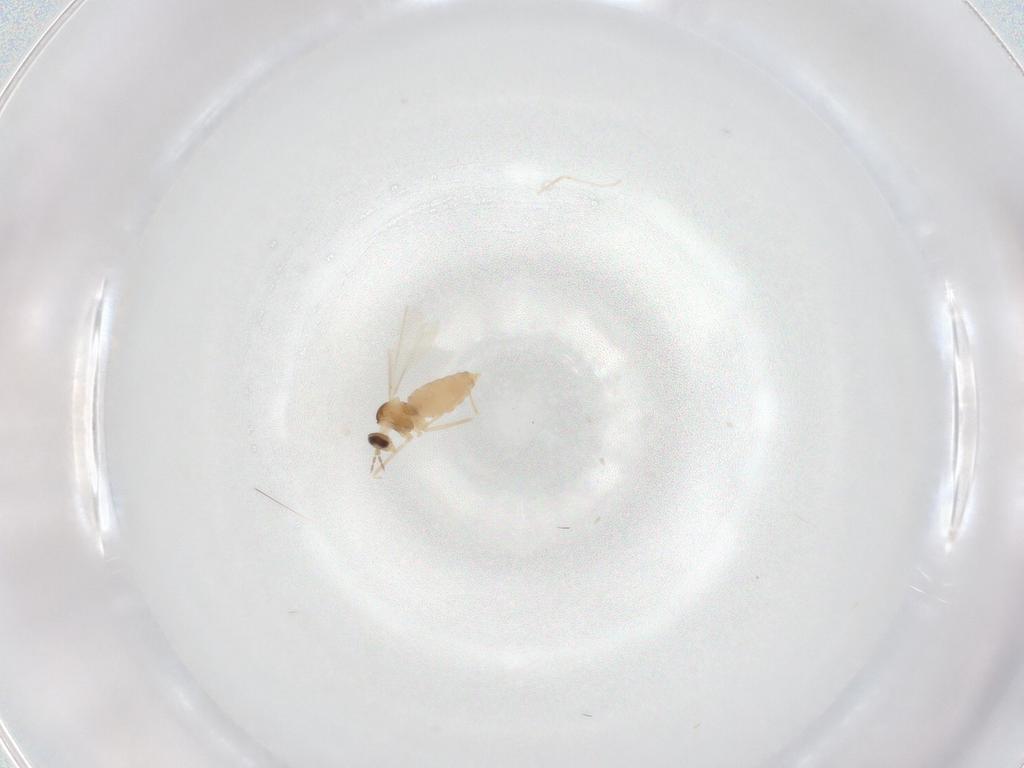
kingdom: Animalia
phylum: Arthropoda
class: Insecta
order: Diptera
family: Cecidomyiidae
